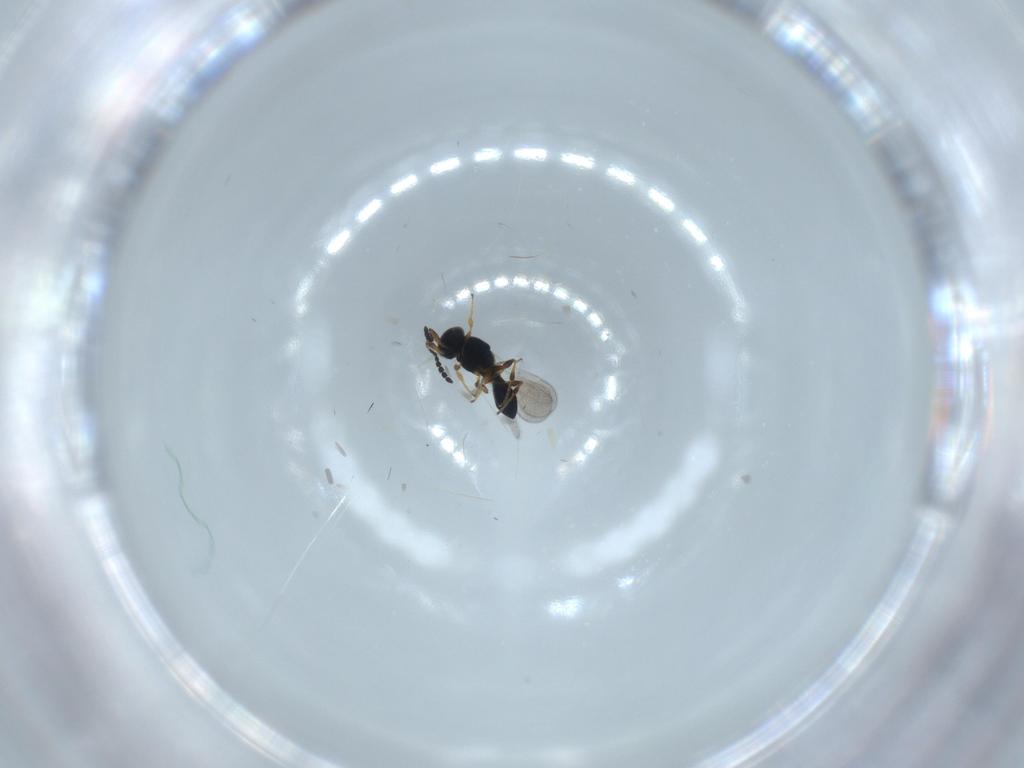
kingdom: Animalia
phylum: Arthropoda
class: Insecta
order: Hymenoptera
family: Platygastridae
